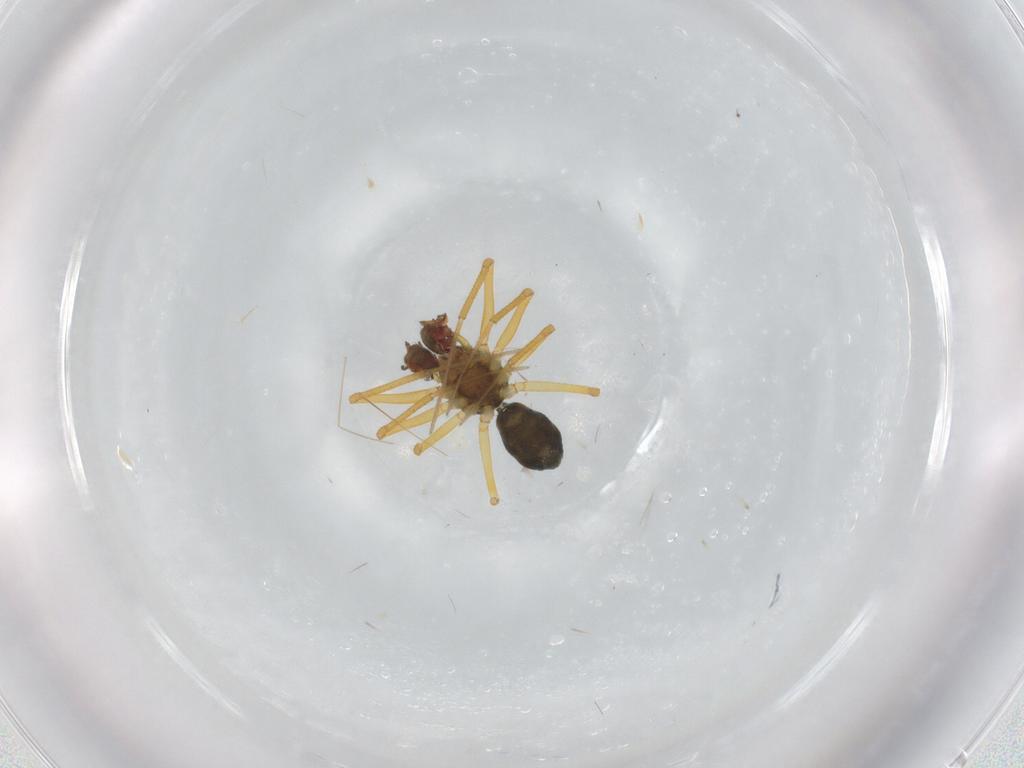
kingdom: Animalia
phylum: Arthropoda
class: Arachnida
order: Araneae
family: Linyphiidae
